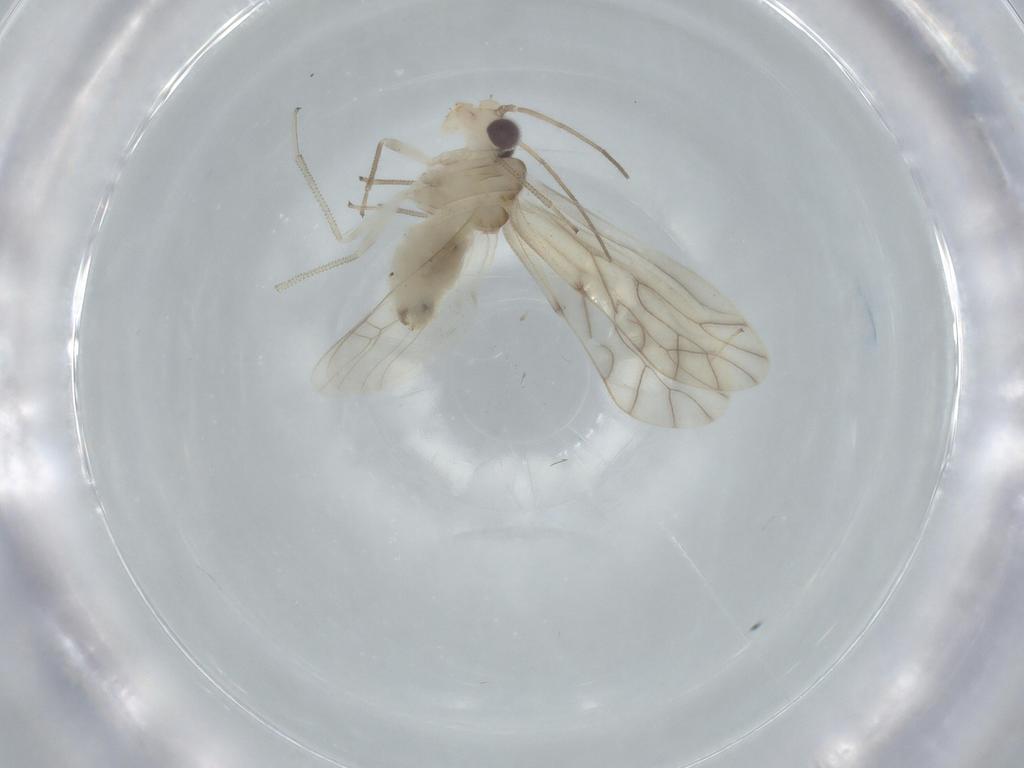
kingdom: Animalia
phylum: Arthropoda
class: Insecta
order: Psocodea
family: Caeciliusidae
